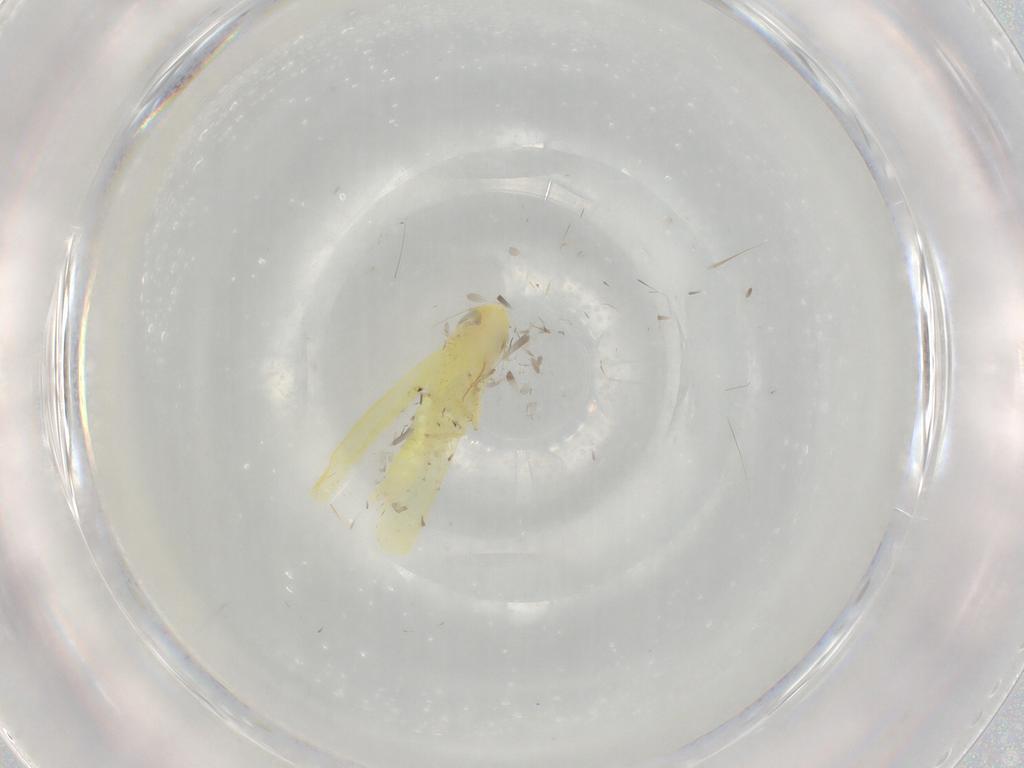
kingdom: Animalia
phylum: Arthropoda
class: Insecta
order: Hemiptera
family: Cicadellidae
